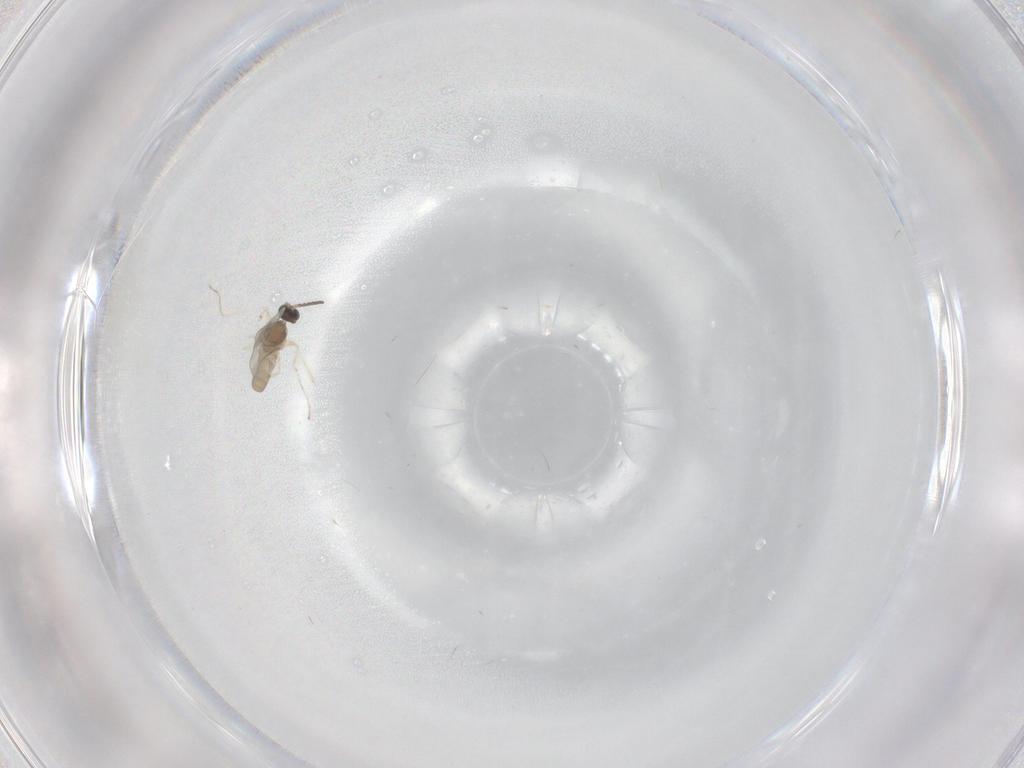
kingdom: Animalia
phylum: Arthropoda
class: Insecta
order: Diptera
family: Cecidomyiidae
